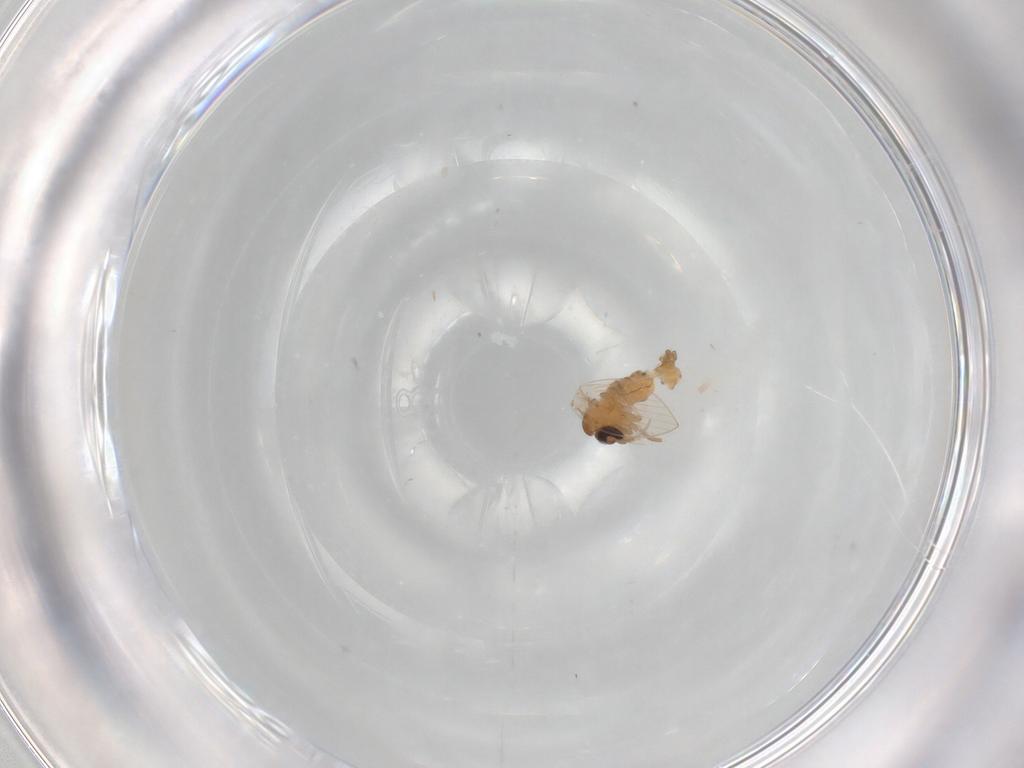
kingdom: Animalia
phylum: Arthropoda
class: Insecta
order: Diptera
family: Psychodidae
